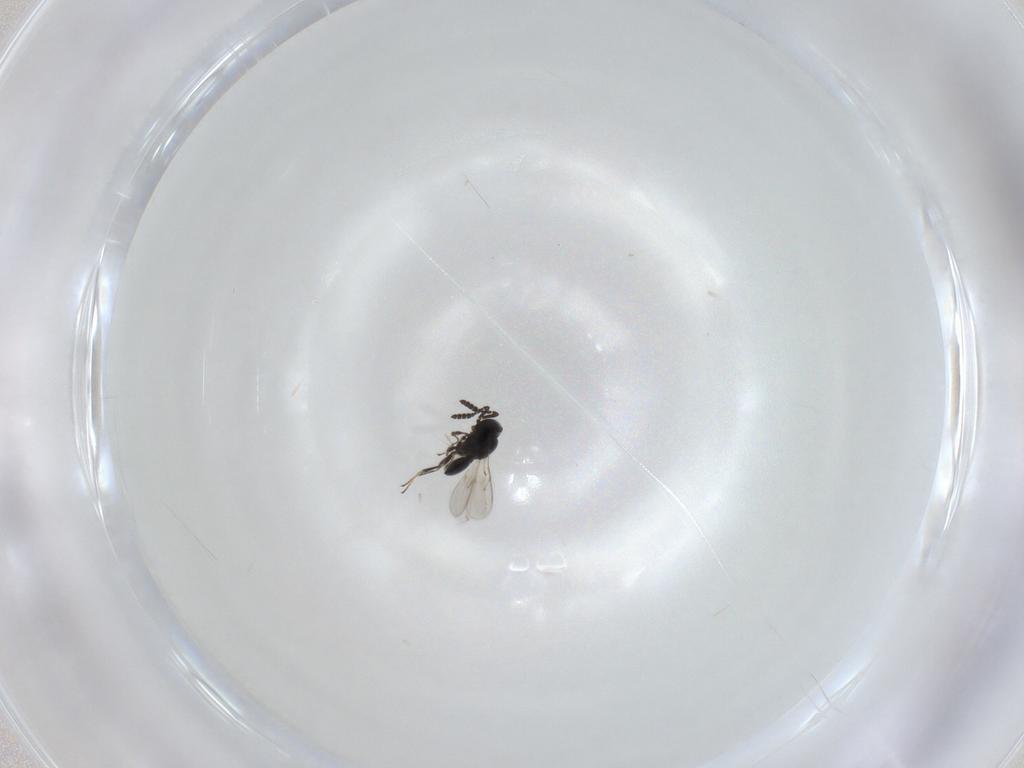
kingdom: Animalia
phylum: Arthropoda
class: Insecta
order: Hymenoptera
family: Scelionidae
